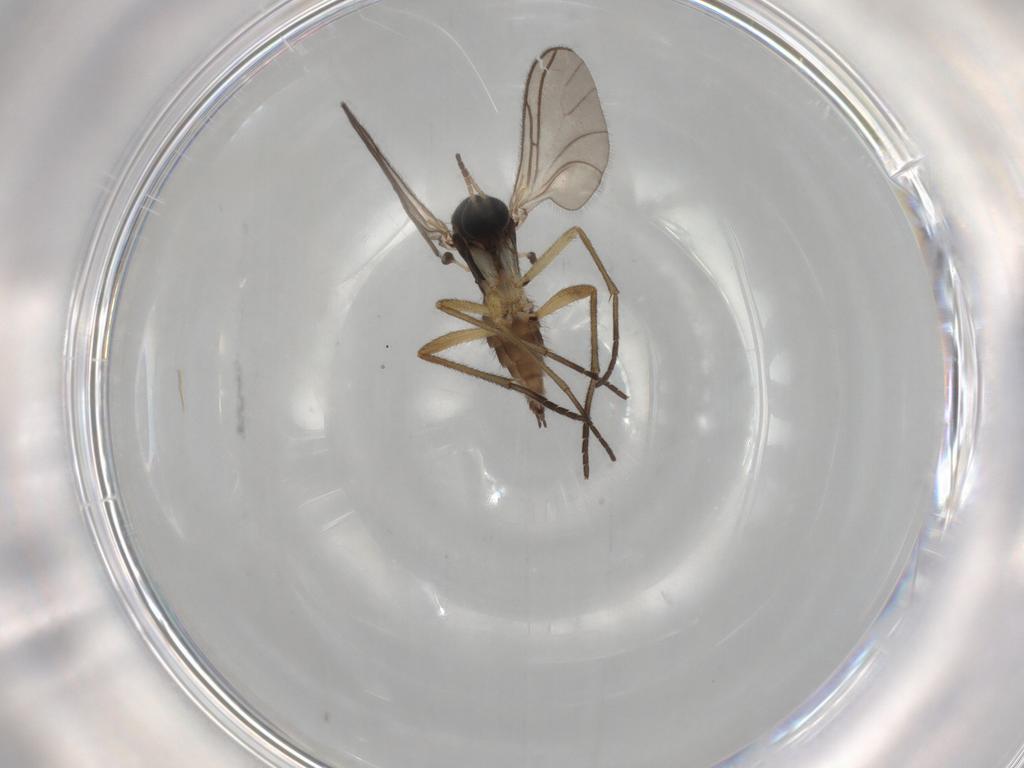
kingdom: Animalia
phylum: Arthropoda
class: Insecta
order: Diptera
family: Sciaridae
